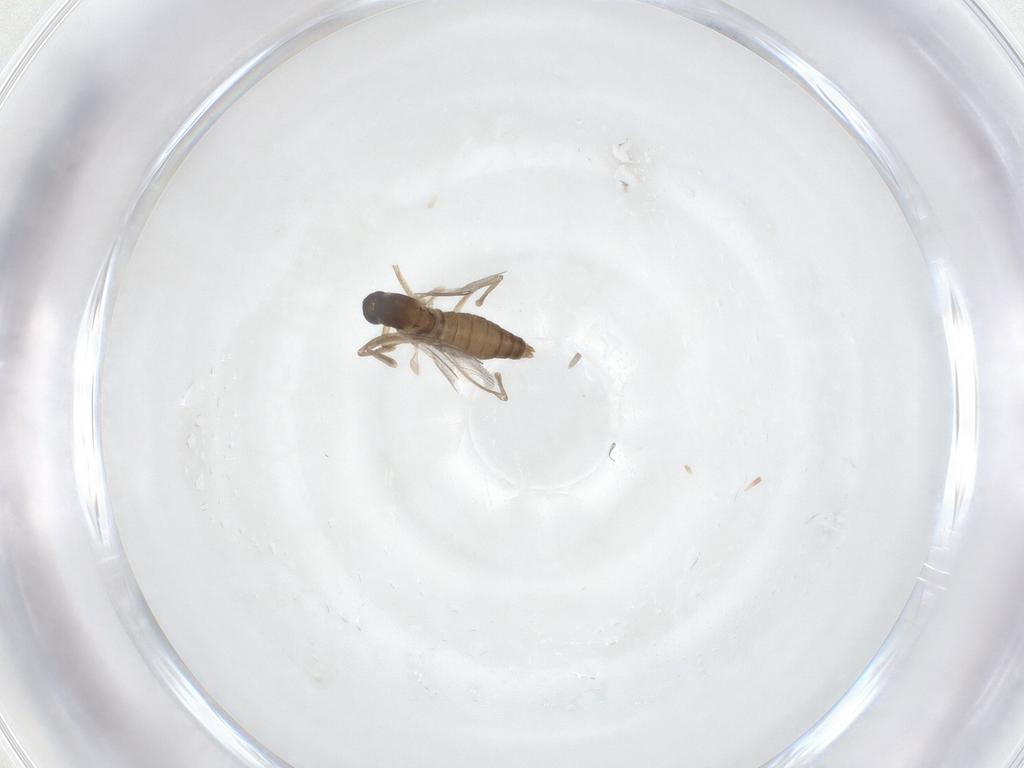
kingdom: Animalia
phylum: Arthropoda
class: Insecta
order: Diptera
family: Cecidomyiidae
